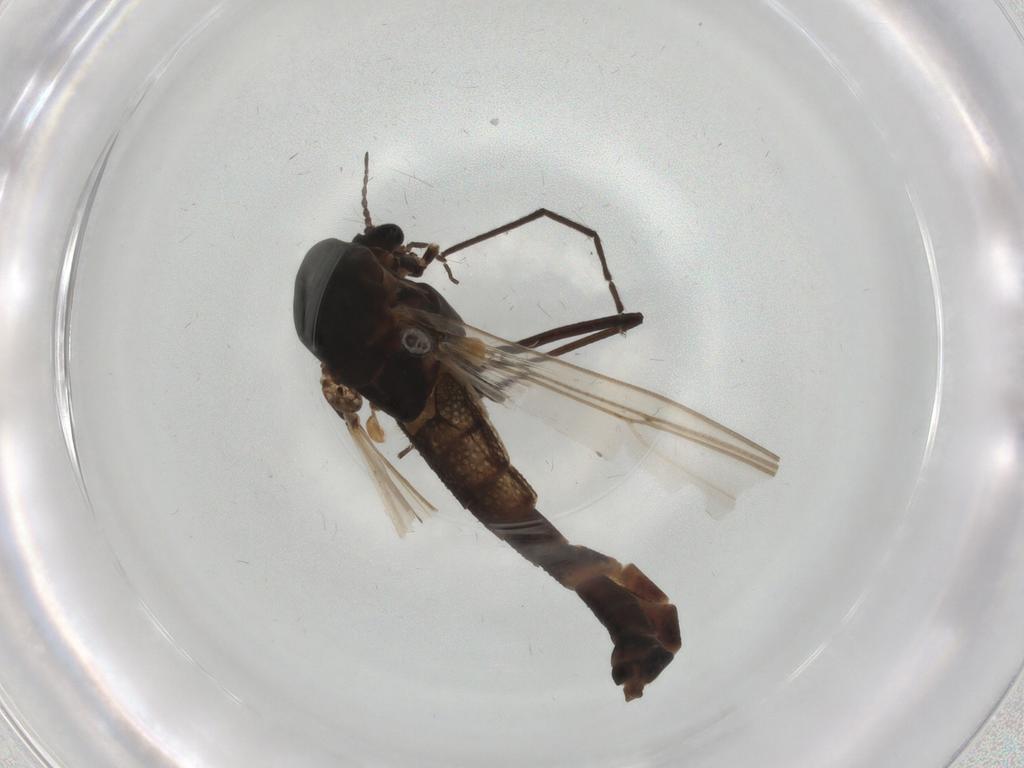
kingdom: Animalia
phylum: Arthropoda
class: Insecta
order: Diptera
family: Chironomidae
